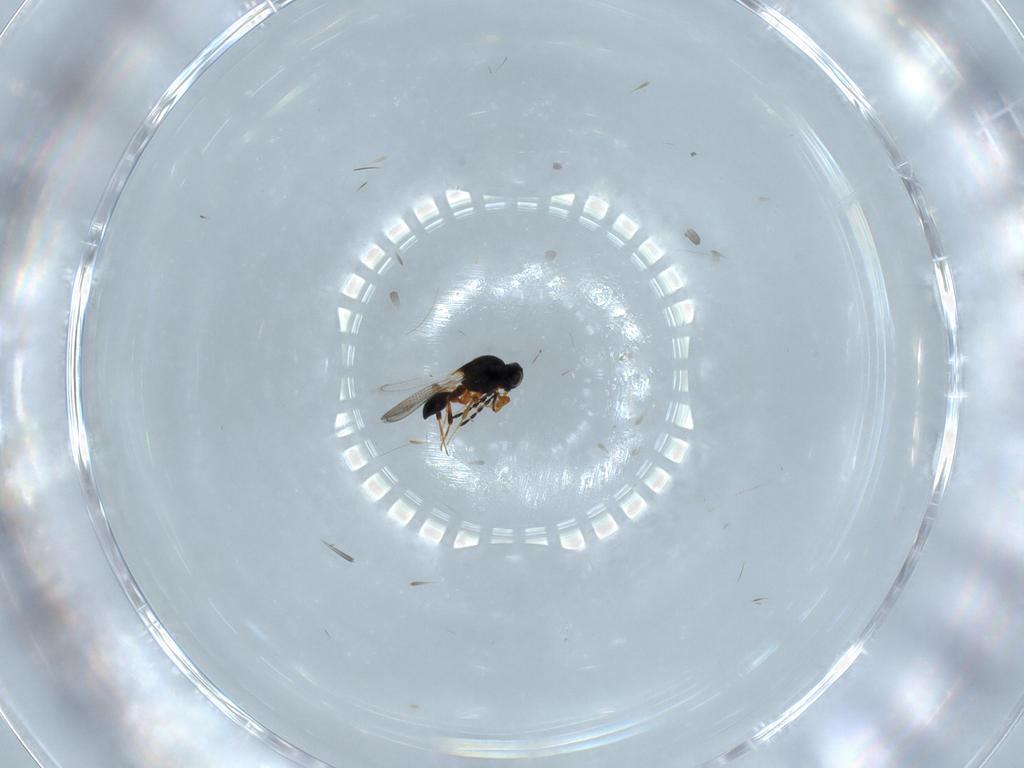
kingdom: Animalia
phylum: Arthropoda
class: Insecta
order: Hymenoptera
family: Platygastridae
